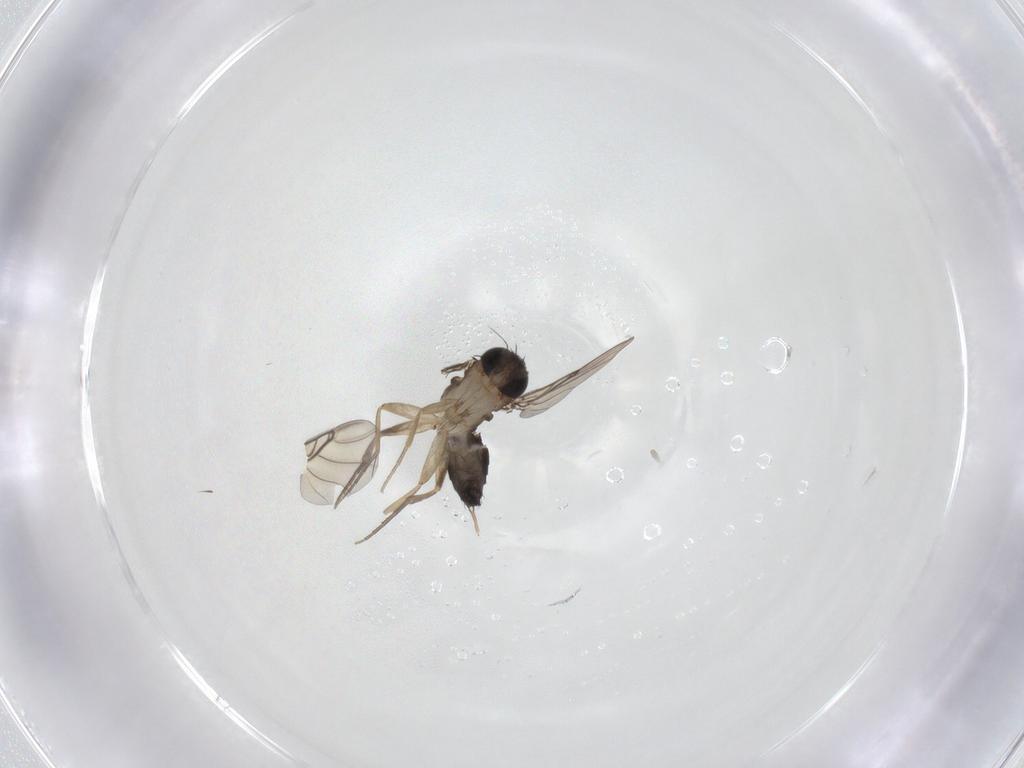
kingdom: Animalia
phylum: Arthropoda
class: Insecta
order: Diptera
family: Phoridae
